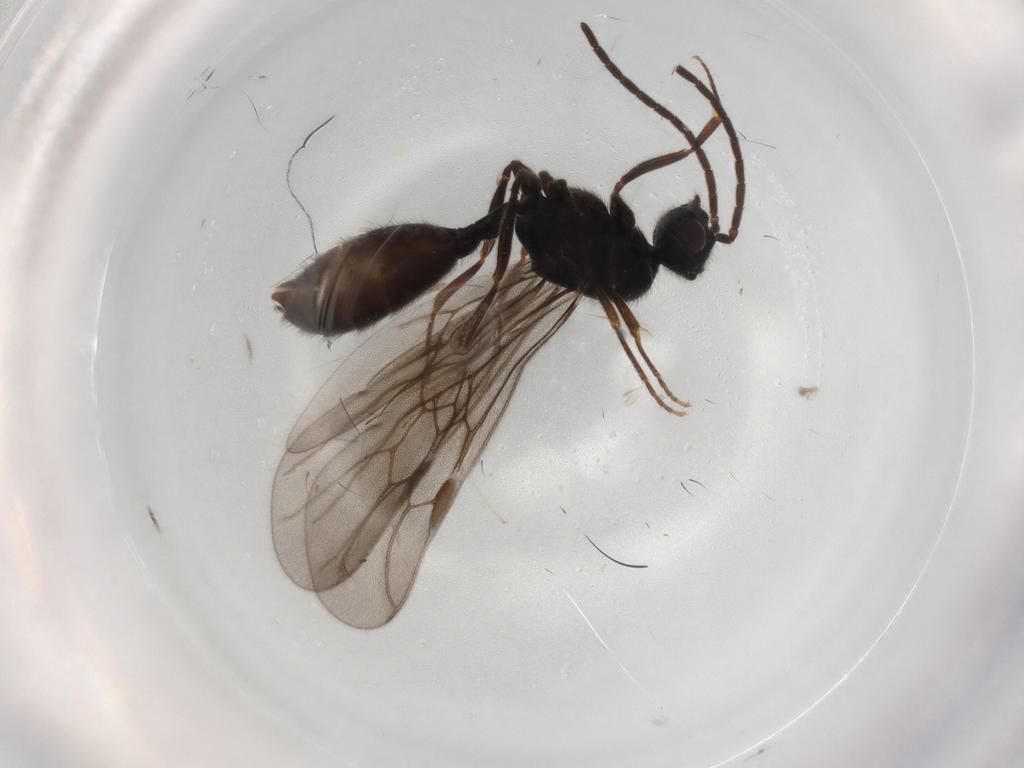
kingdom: Animalia
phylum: Arthropoda
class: Insecta
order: Hymenoptera
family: Formicidae
